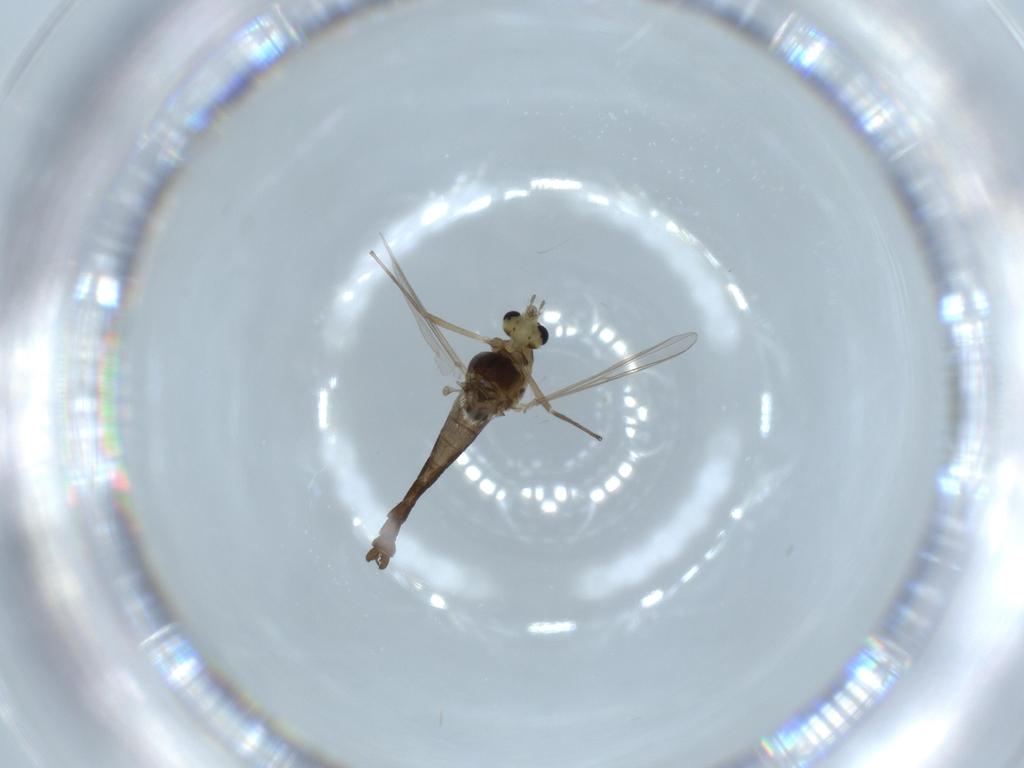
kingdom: Animalia
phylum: Arthropoda
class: Insecta
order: Diptera
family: Chironomidae
